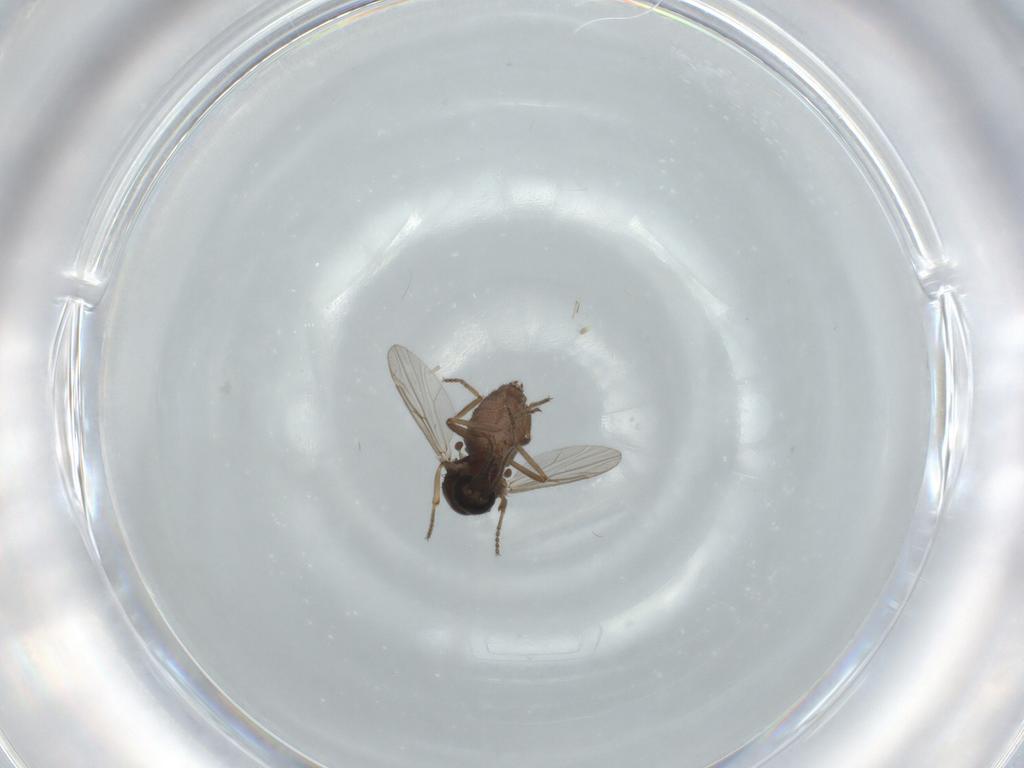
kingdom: Animalia
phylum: Arthropoda
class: Insecta
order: Diptera
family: Ceratopogonidae
